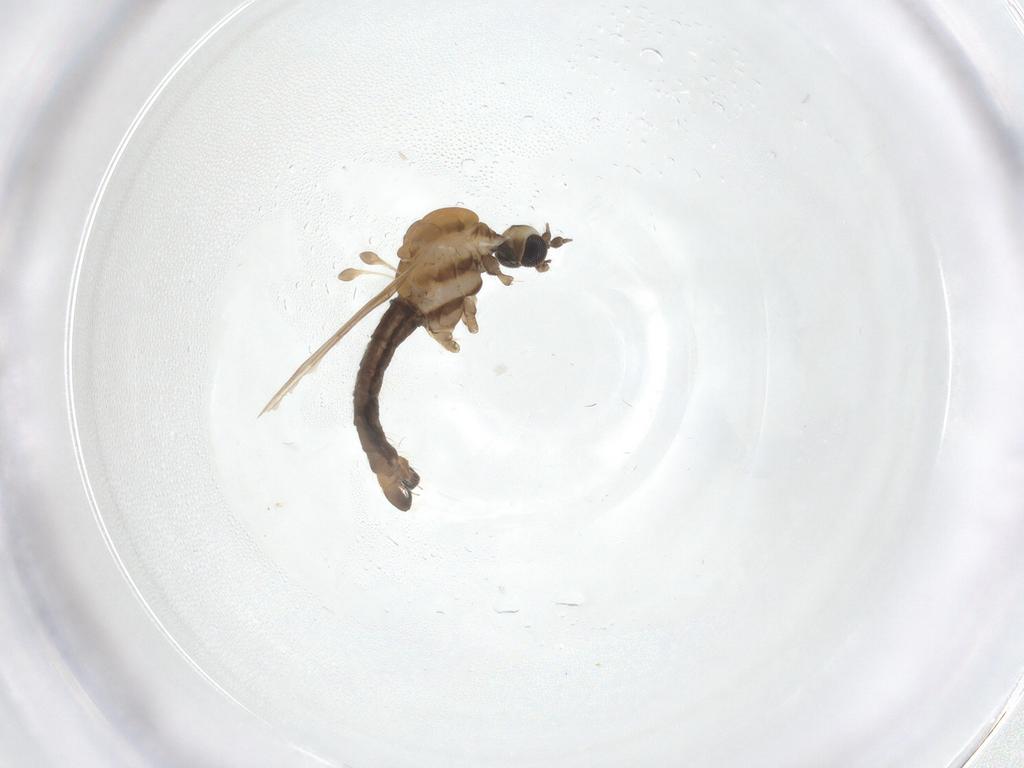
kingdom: Animalia
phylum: Arthropoda
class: Insecta
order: Diptera
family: Limoniidae
